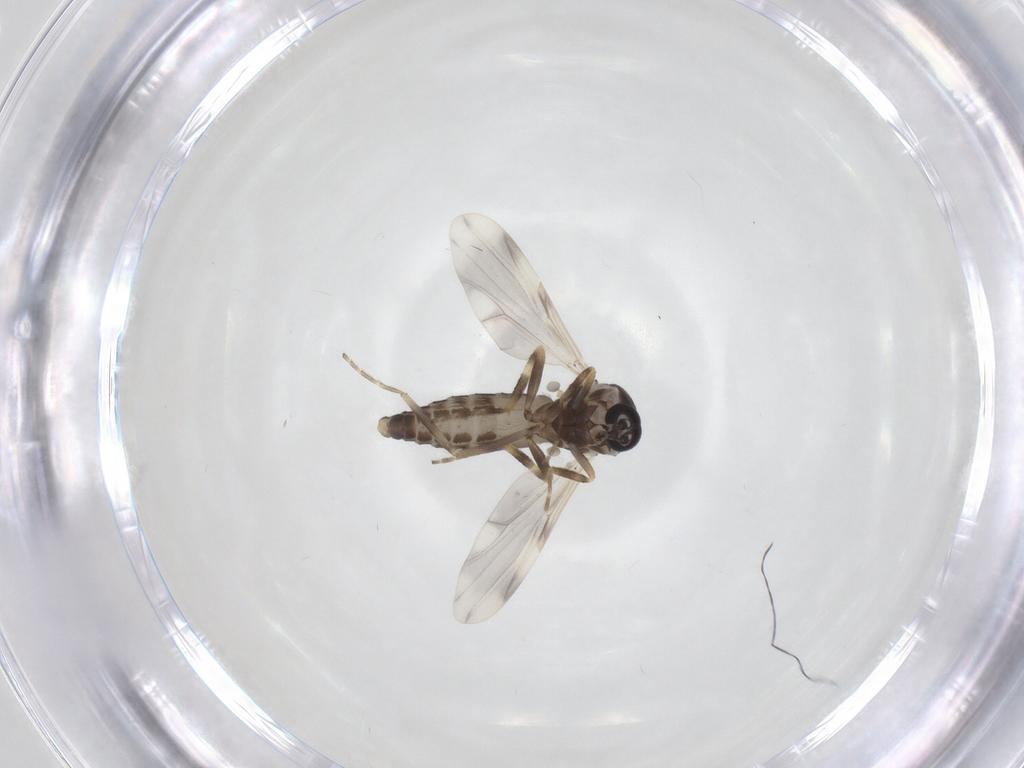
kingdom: Animalia
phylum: Arthropoda
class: Insecta
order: Diptera
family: Ceratopogonidae
